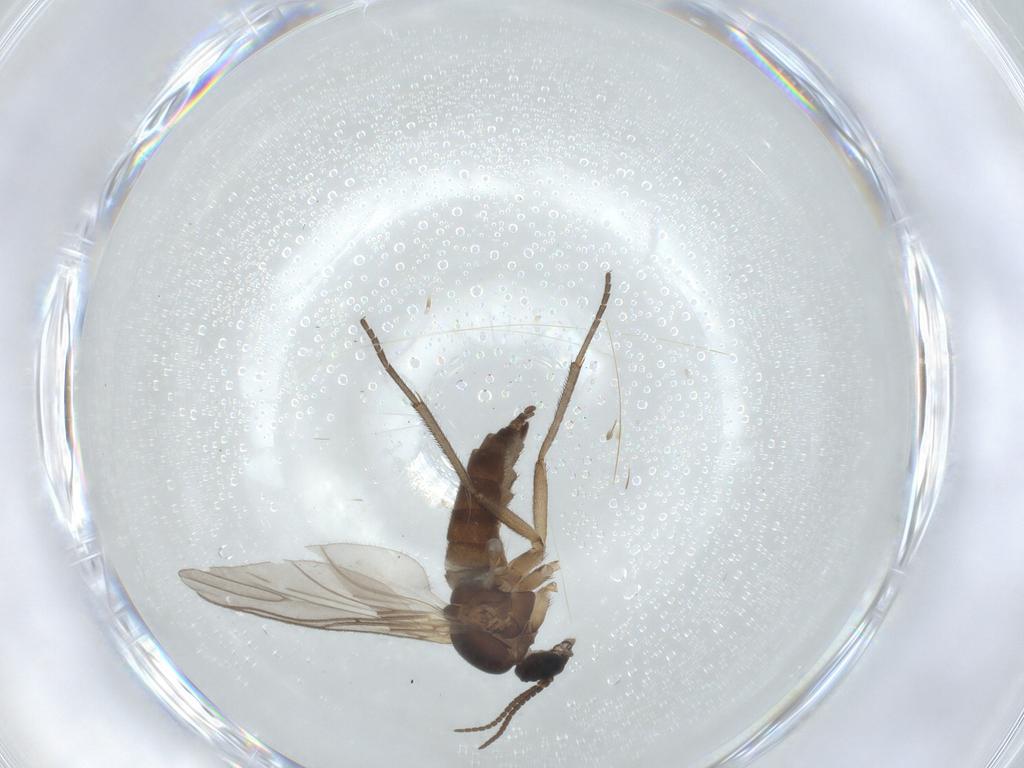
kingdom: Animalia
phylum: Arthropoda
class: Insecta
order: Diptera
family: Sciaridae
